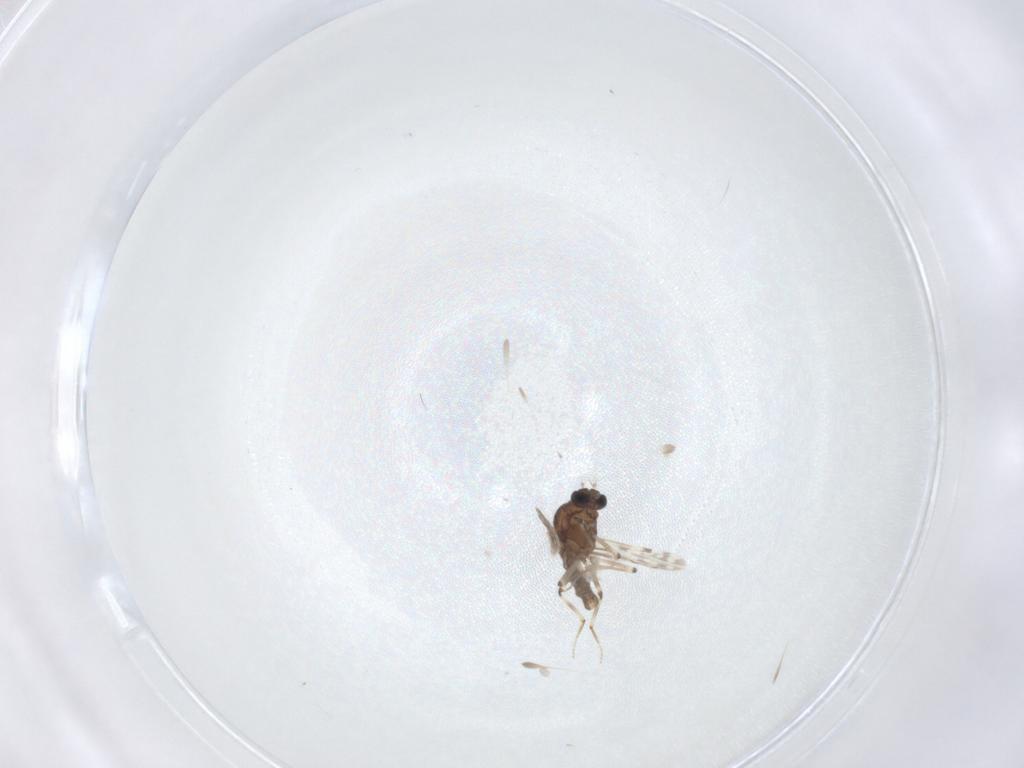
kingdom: Animalia
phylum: Arthropoda
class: Insecta
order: Diptera
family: Ceratopogonidae
